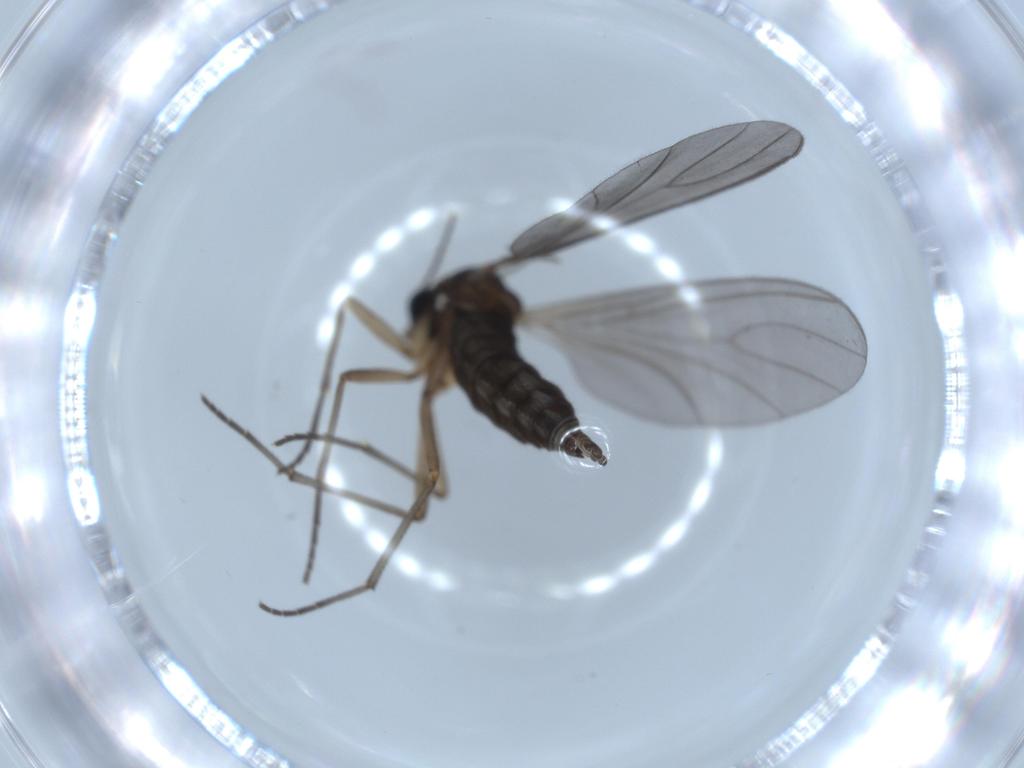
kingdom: Animalia
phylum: Arthropoda
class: Insecta
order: Diptera
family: Sciaridae
